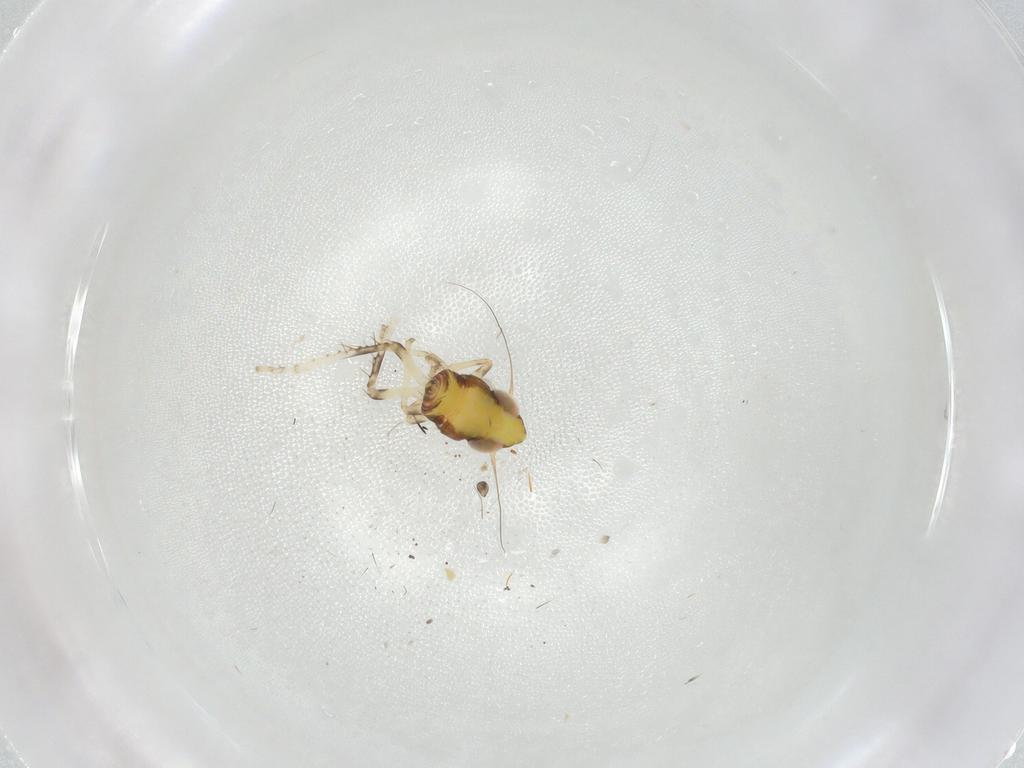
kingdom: Animalia
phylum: Arthropoda
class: Insecta
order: Hemiptera
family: Cicadellidae
